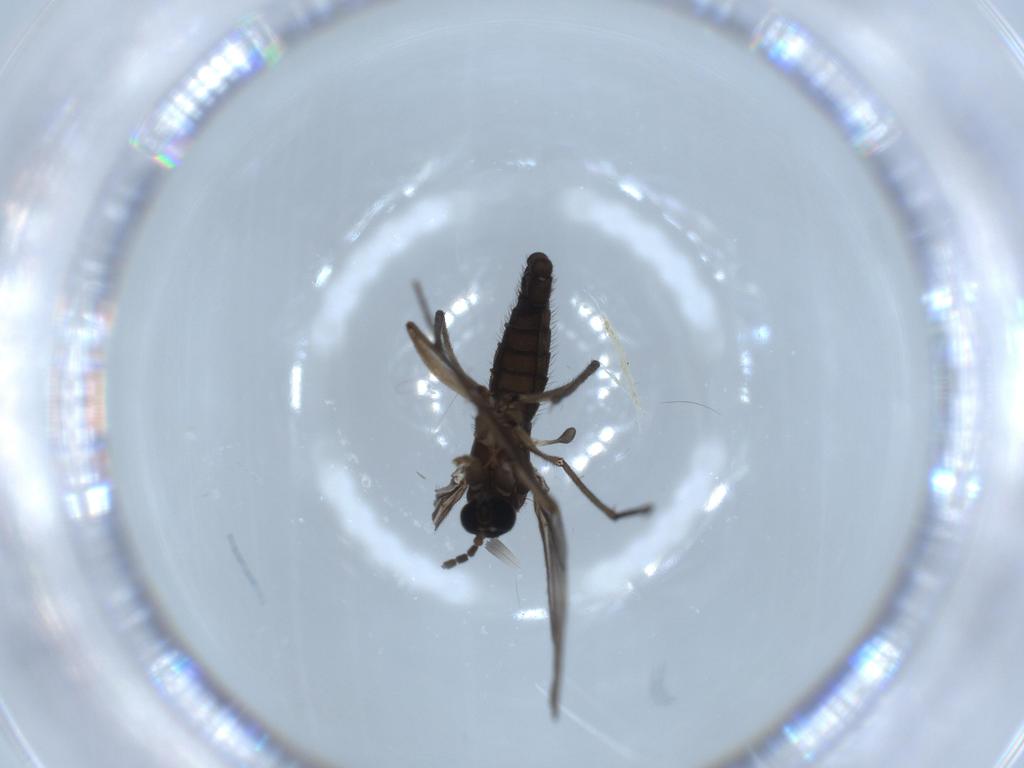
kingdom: Animalia
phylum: Arthropoda
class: Insecta
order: Diptera
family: Sciaridae
